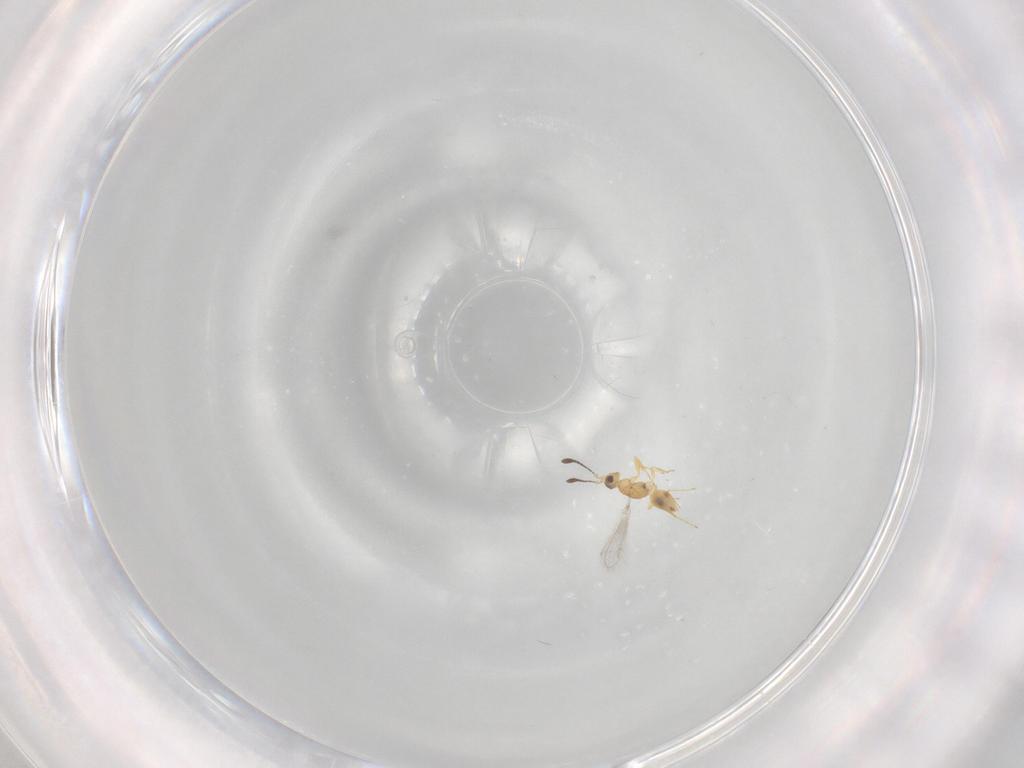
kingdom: Animalia
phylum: Arthropoda
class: Insecta
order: Hymenoptera
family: Mymaridae
